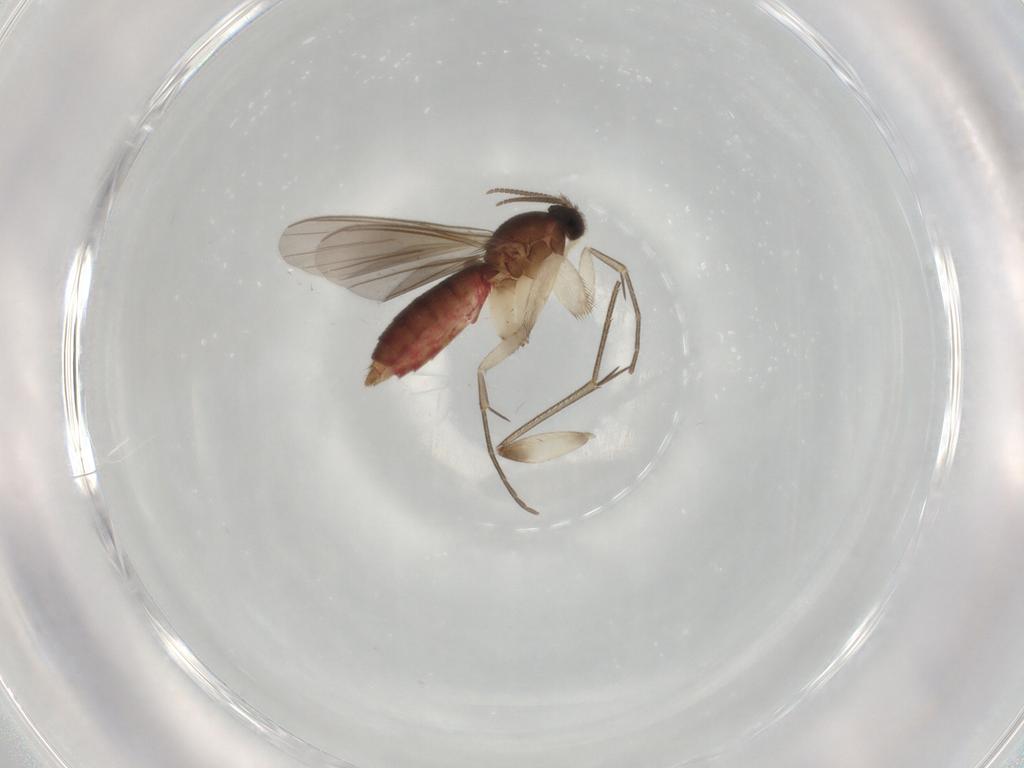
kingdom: Animalia
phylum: Arthropoda
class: Insecta
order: Diptera
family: Mycetophilidae
